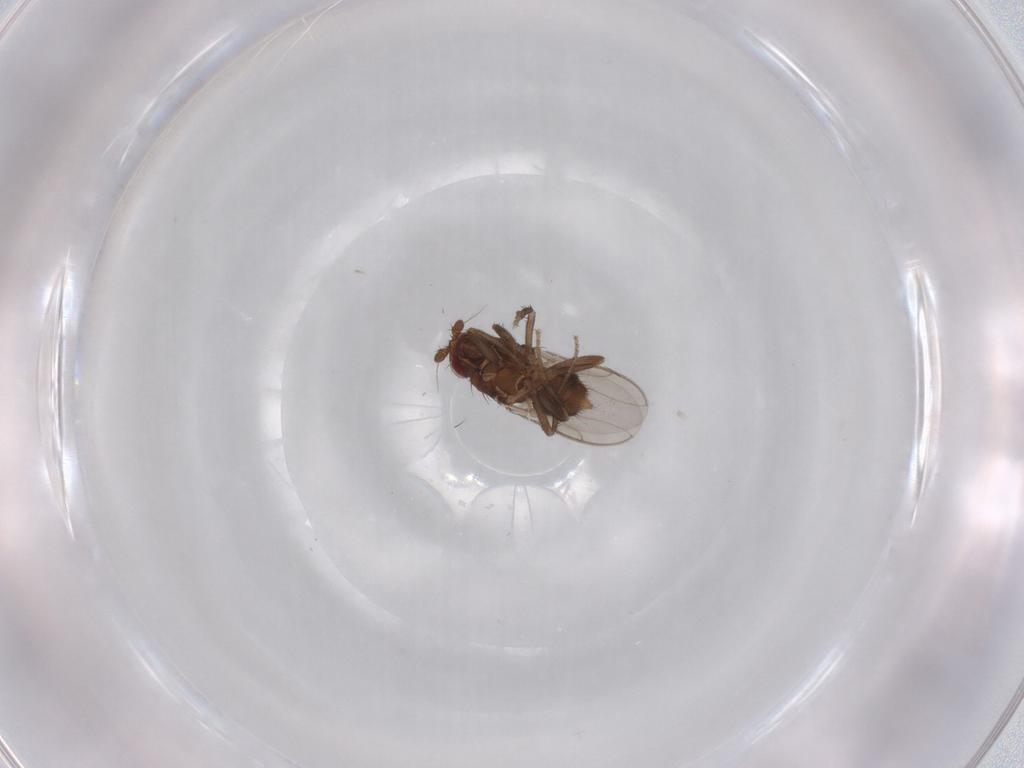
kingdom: Animalia
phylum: Arthropoda
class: Insecta
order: Diptera
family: Sphaeroceridae
